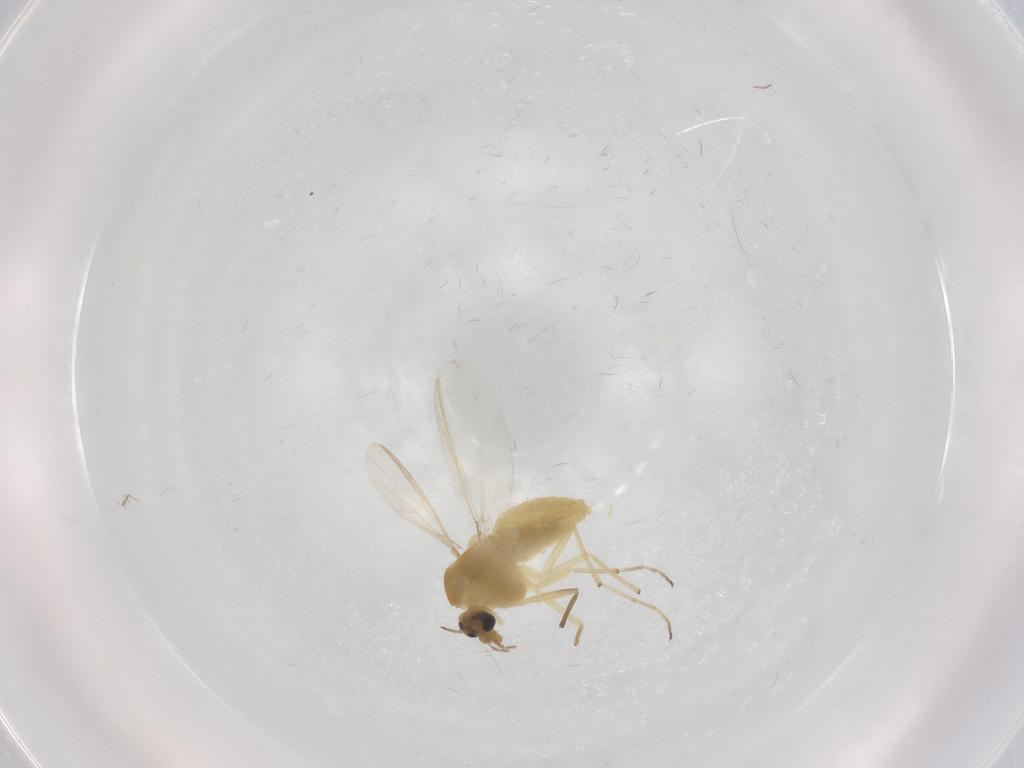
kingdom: Animalia
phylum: Arthropoda
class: Insecta
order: Diptera
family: Chironomidae
